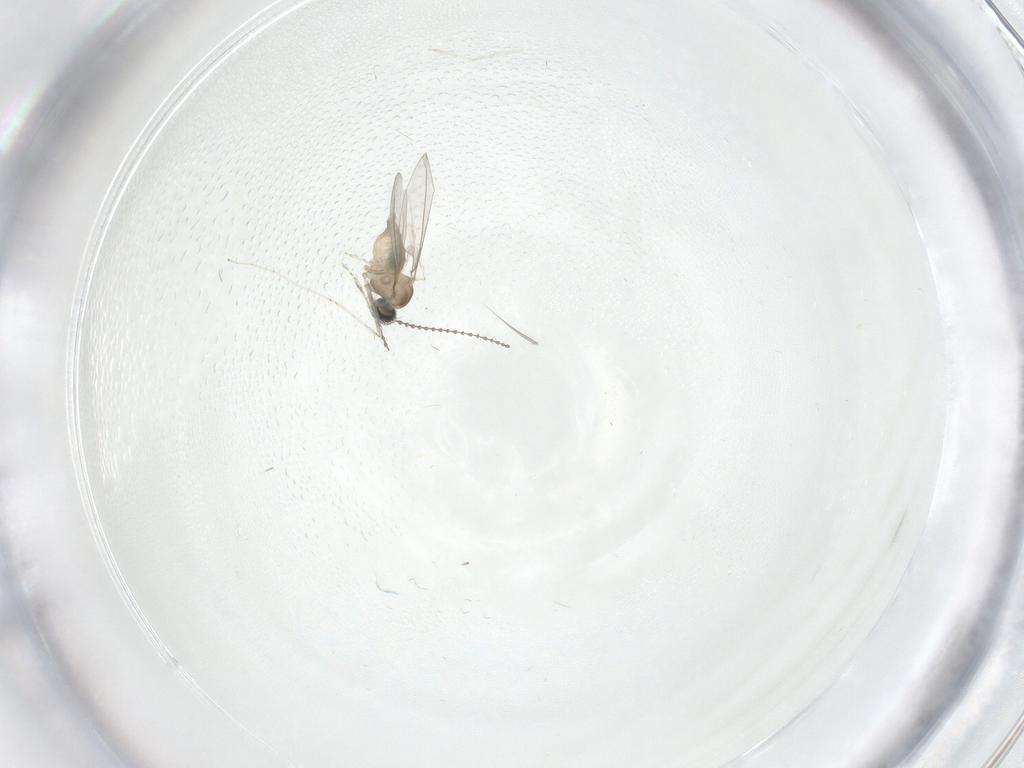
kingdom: Animalia
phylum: Arthropoda
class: Insecta
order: Diptera
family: Cecidomyiidae
